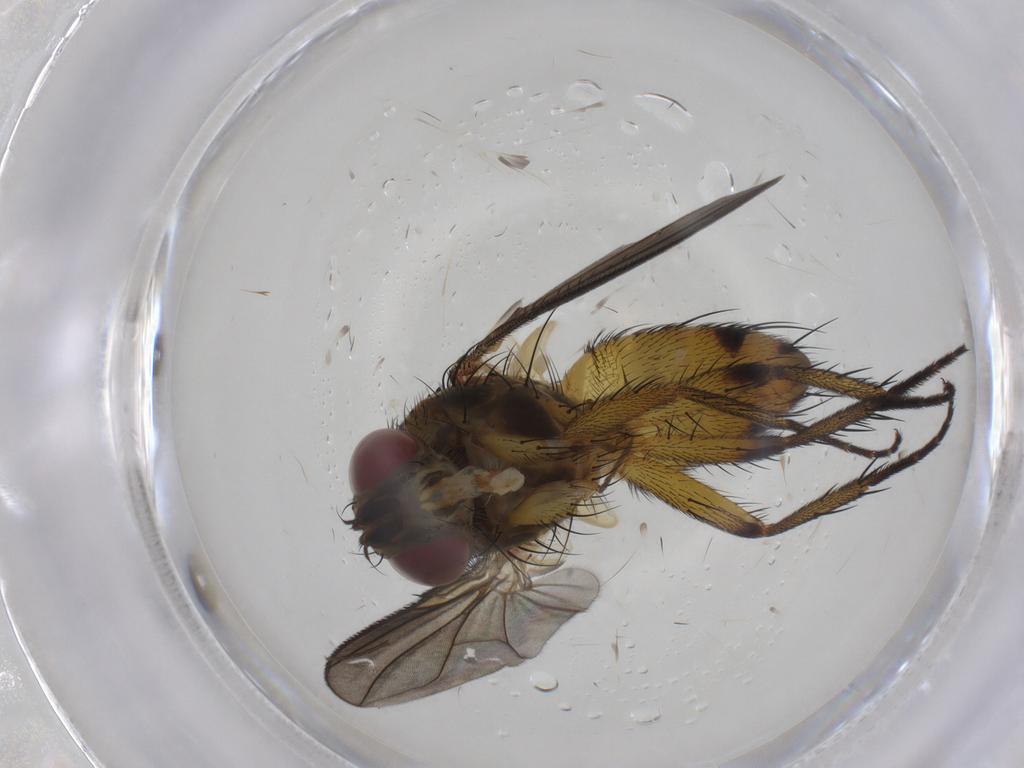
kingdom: Animalia
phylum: Arthropoda
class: Insecta
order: Diptera
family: Tachinidae
